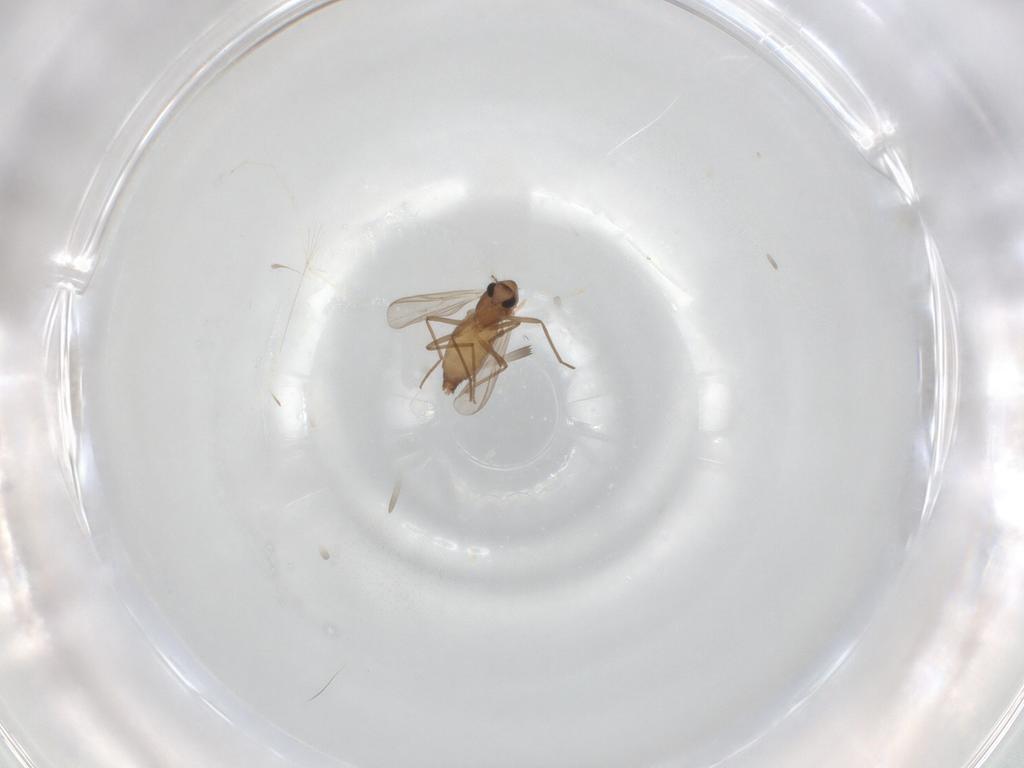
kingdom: Animalia
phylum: Arthropoda
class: Insecta
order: Diptera
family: Chironomidae
